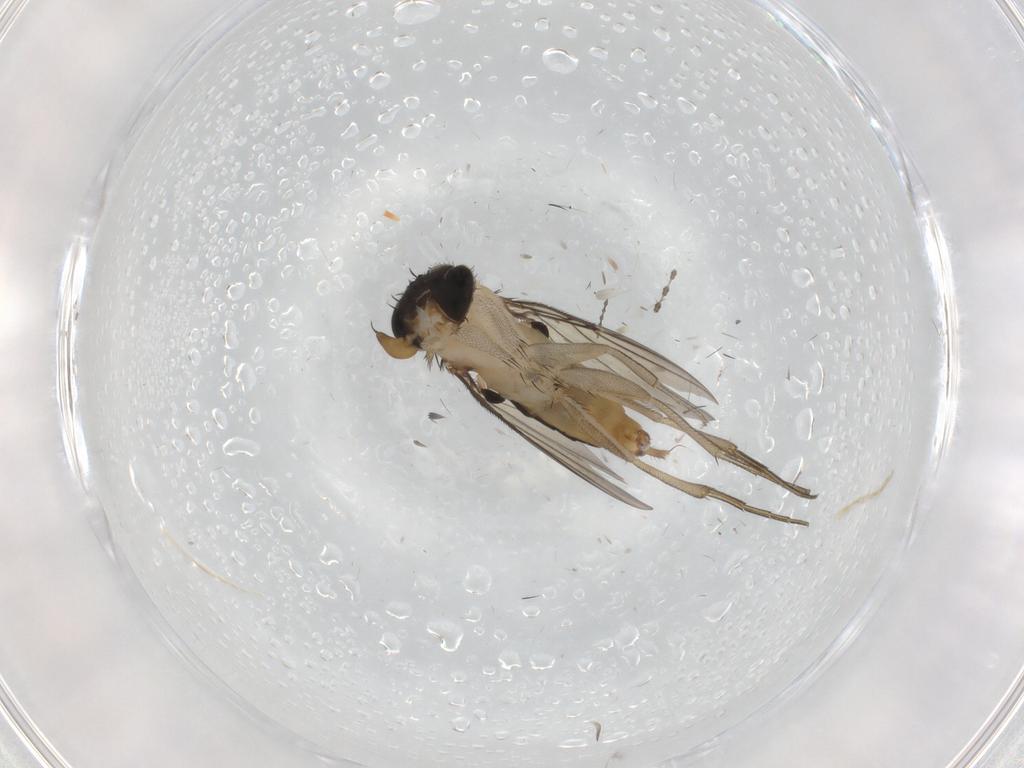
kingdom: Animalia
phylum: Arthropoda
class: Insecta
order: Diptera
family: Phoridae
